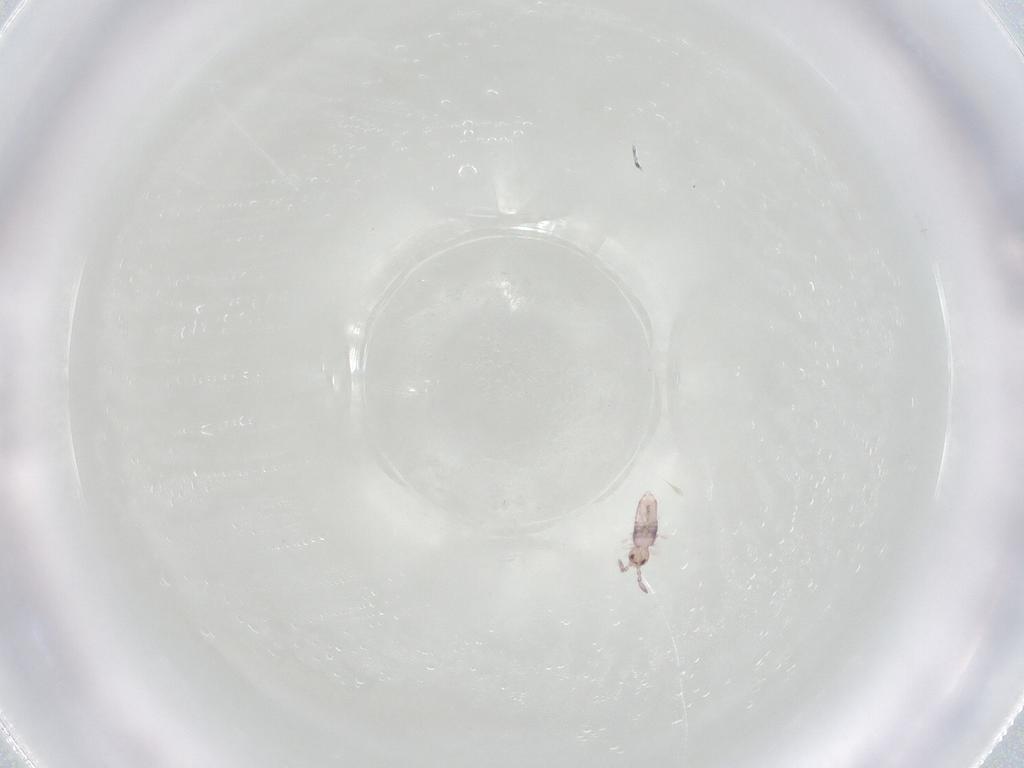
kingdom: Animalia
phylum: Arthropoda
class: Collembola
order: Entomobryomorpha
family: Entomobryidae
